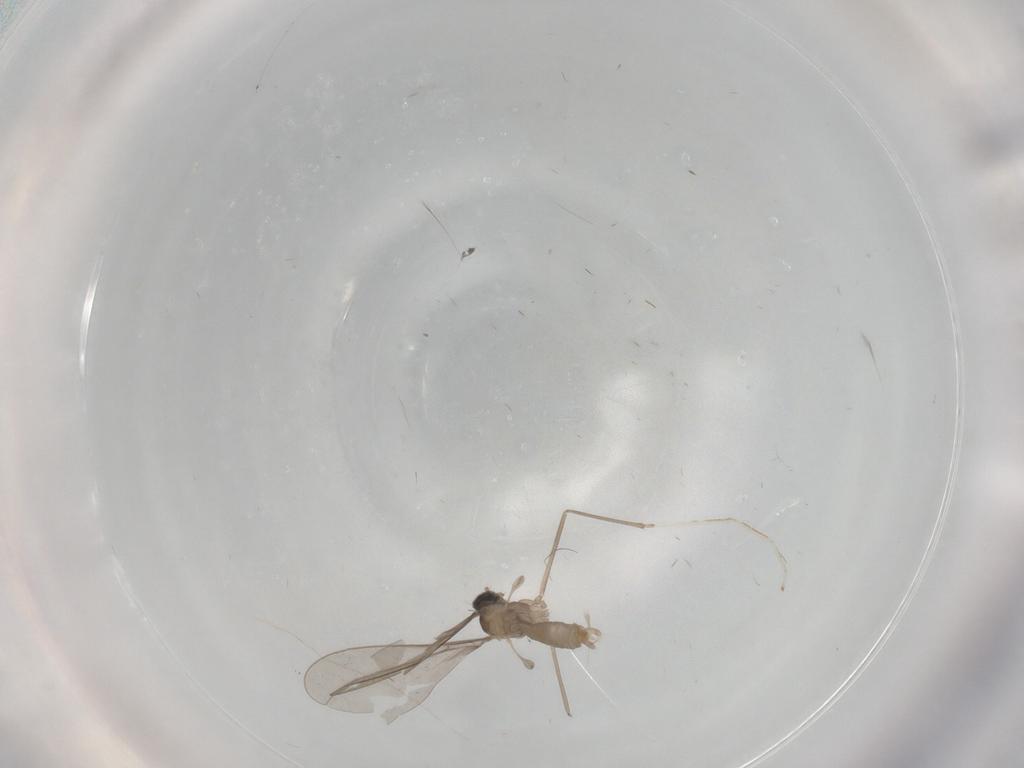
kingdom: Animalia
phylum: Arthropoda
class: Insecta
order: Diptera
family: Cecidomyiidae
